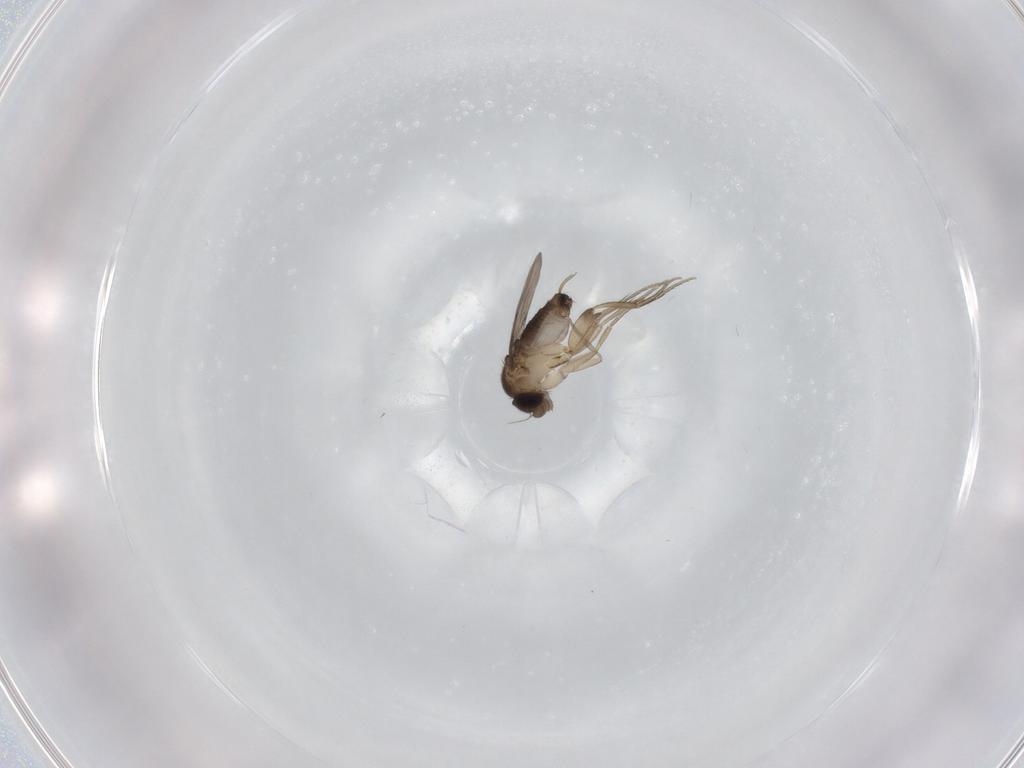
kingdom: Animalia
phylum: Arthropoda
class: Insecta
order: Diptera
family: Phoridae
